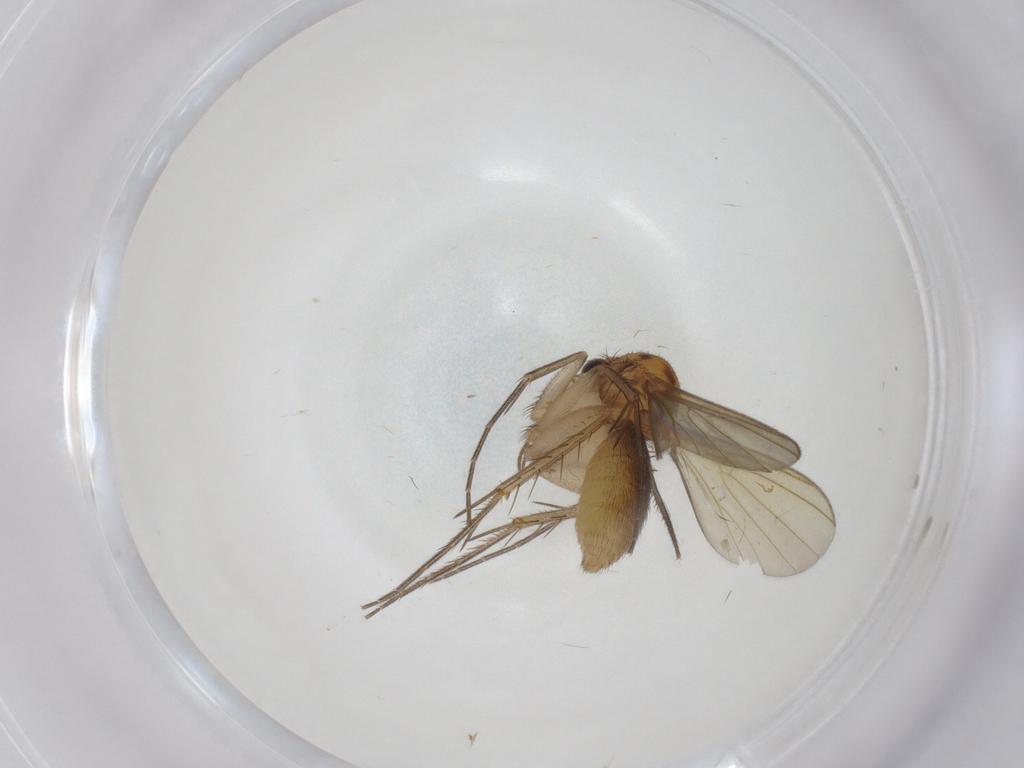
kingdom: Animalia
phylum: Arthropoda
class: Insecta
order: Diptera
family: Mycetophilidae
